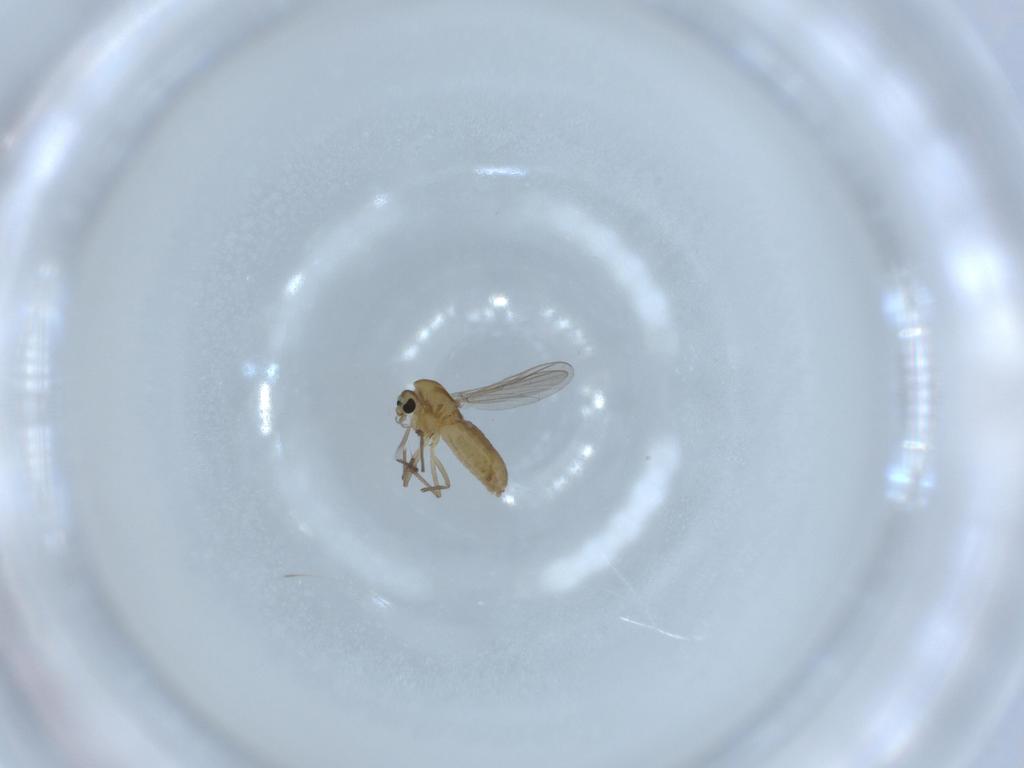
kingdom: Animalia
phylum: Arthropoda
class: Insecta
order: Diptera
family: Chironomidae
